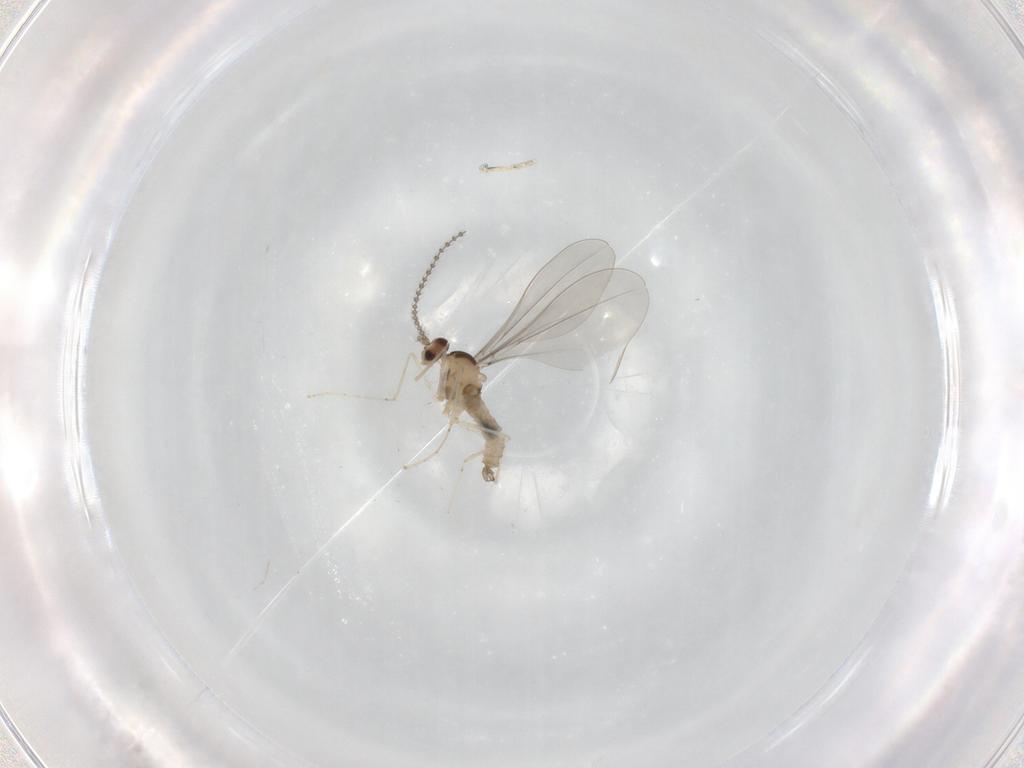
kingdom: Animalia
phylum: Arthropoda
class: Insecta
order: Diptera
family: Cecidomyiidae
